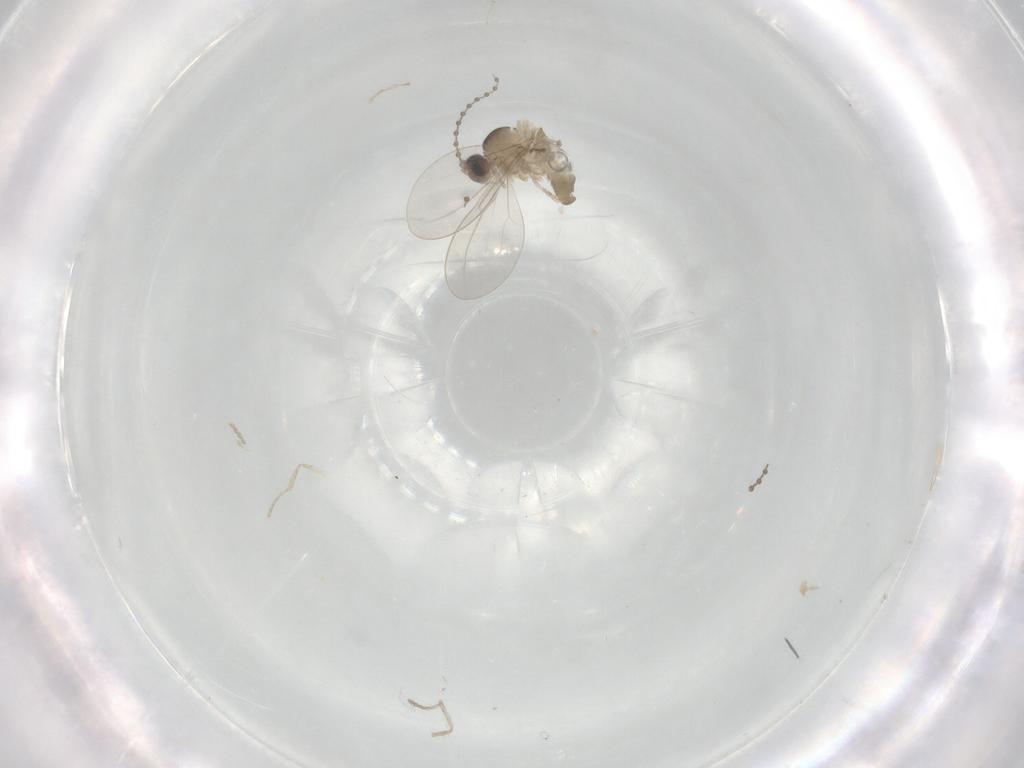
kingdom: Animalia
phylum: Arthropoda
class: Insecta
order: Diptera
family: Cecidomyiidae
